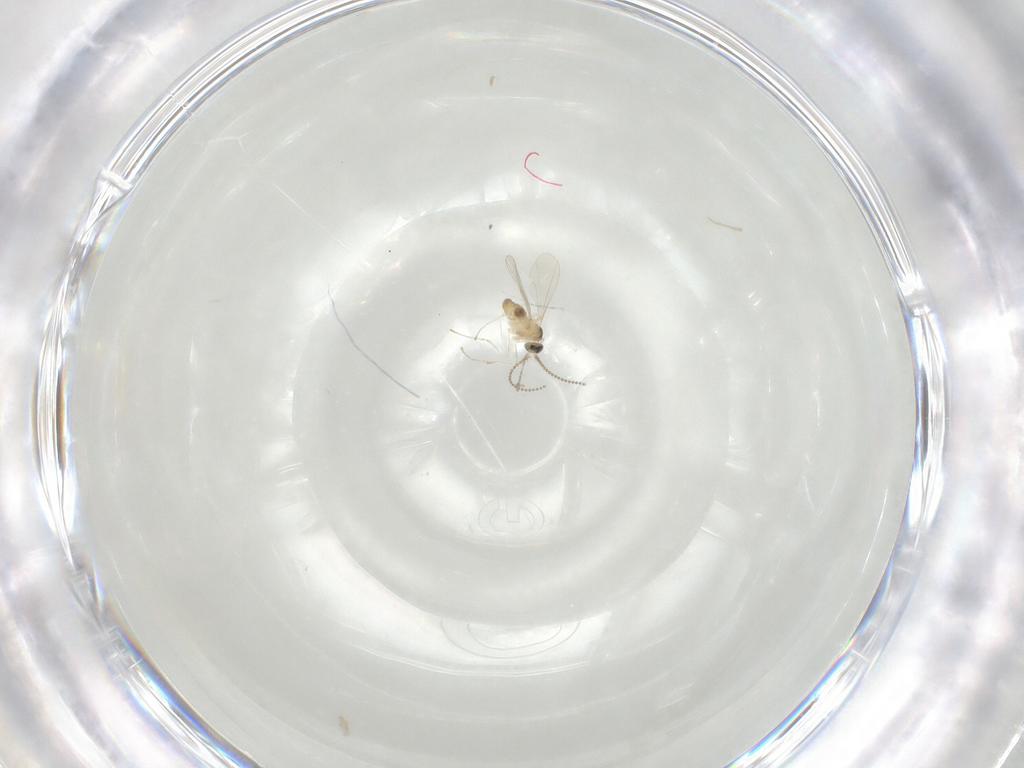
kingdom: Animalia
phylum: Arthropoda
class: Insecta
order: Diptera
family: Cecidomyiidae
